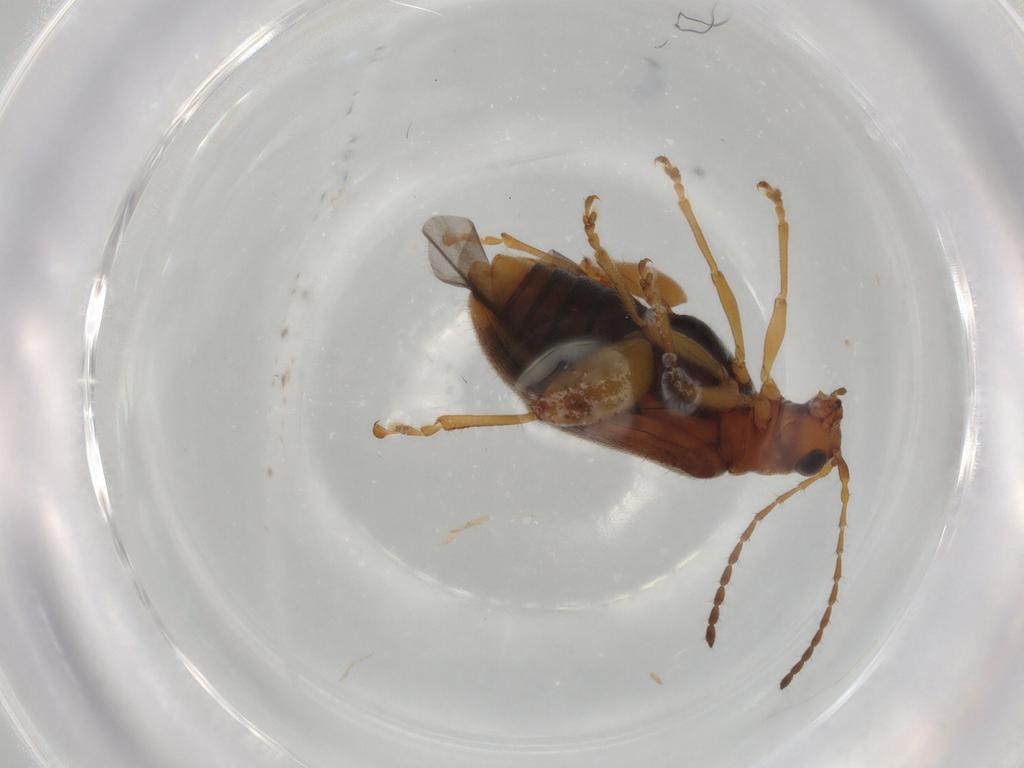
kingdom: Animalia
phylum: Arthropoda
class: Insecta
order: Coleoptera
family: Chrysomelidae
